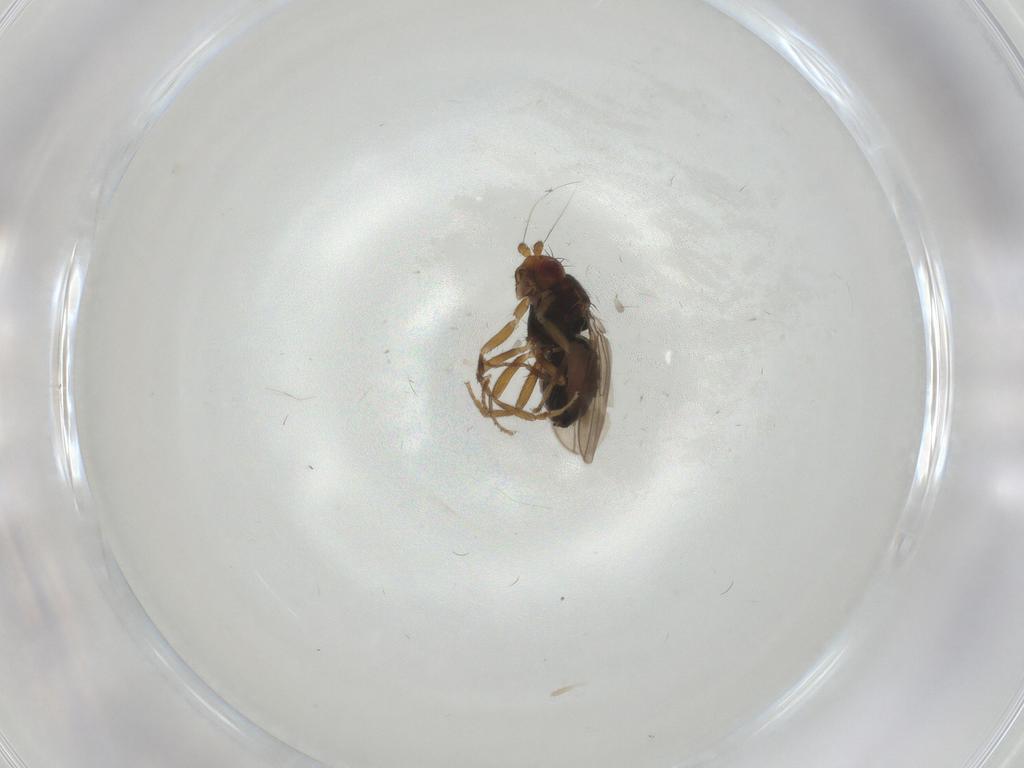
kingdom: Animalia
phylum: Arthropoda
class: Insecta
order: Diptera
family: Sphaeroceridae
